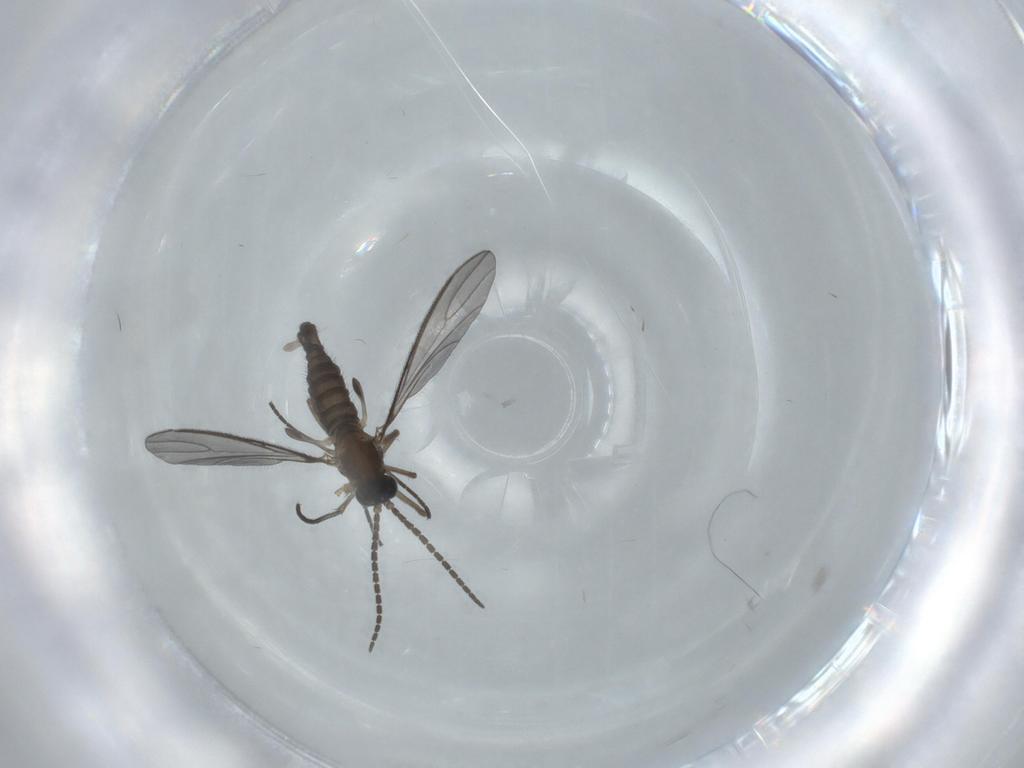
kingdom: Animalia
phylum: Arthropoda
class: Insecta
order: Diptera
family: Sciaridae
